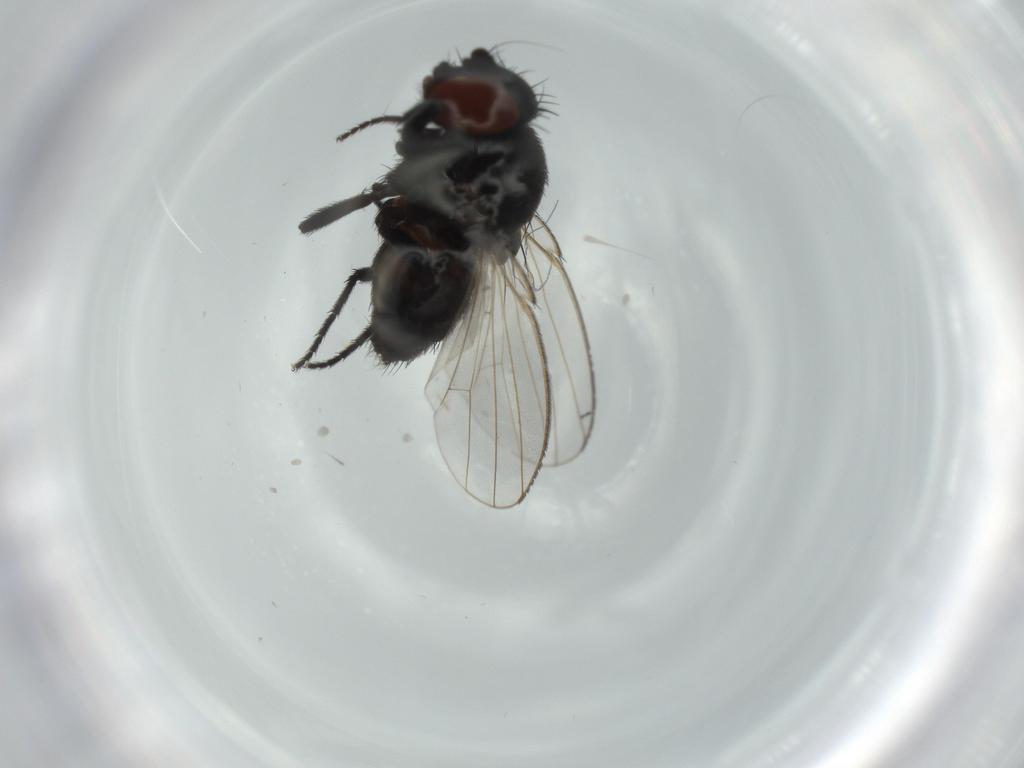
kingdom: Animalia
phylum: Arthropoda
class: Insecta
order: Diptera
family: Milichiidae
